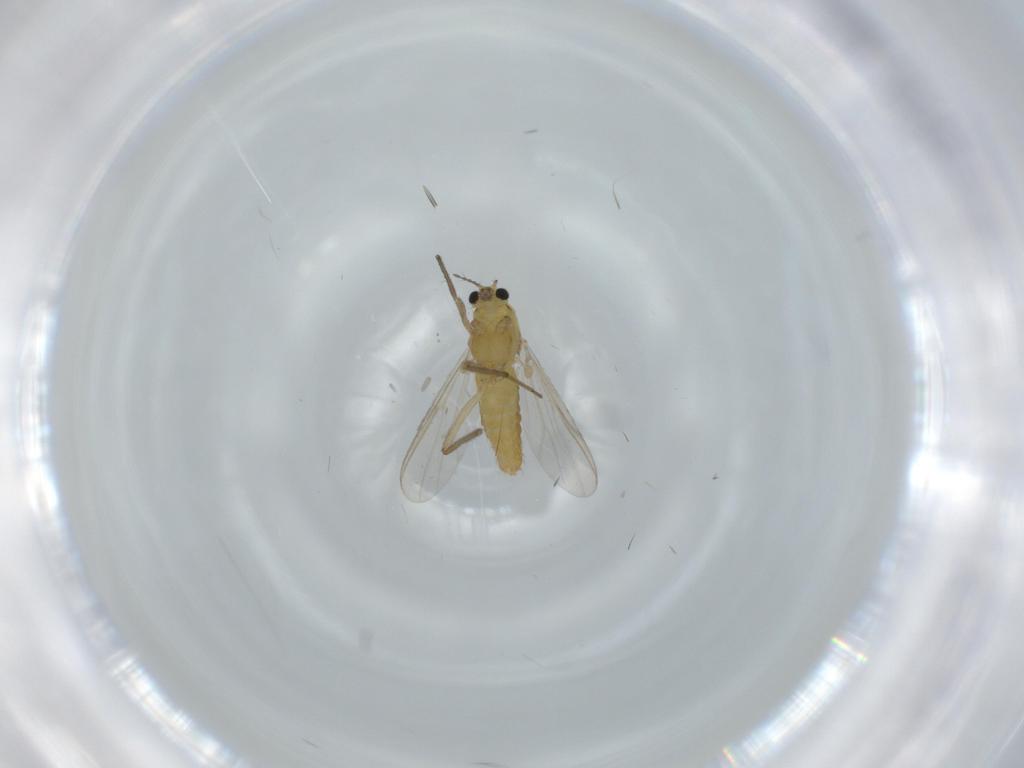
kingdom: Animalia
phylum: Arthropoda
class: Insecta
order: Diptera
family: Chironomidae
